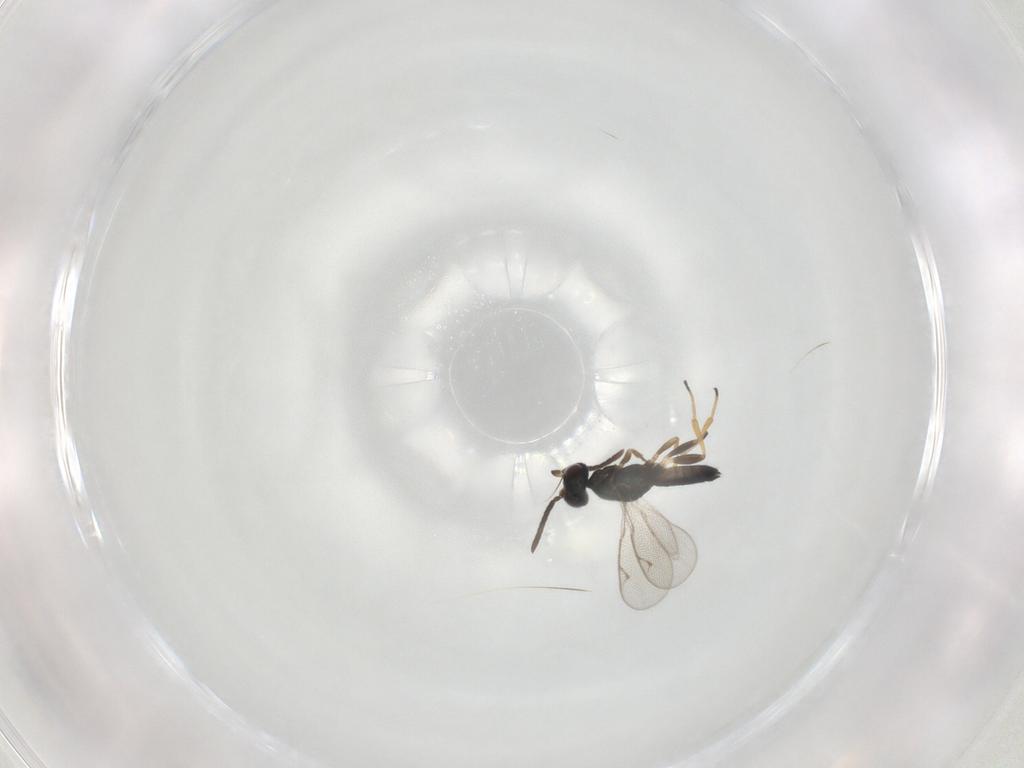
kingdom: Animalia
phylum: Arthropoda
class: Insecta
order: Hymenoptera
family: Eupelmidae
